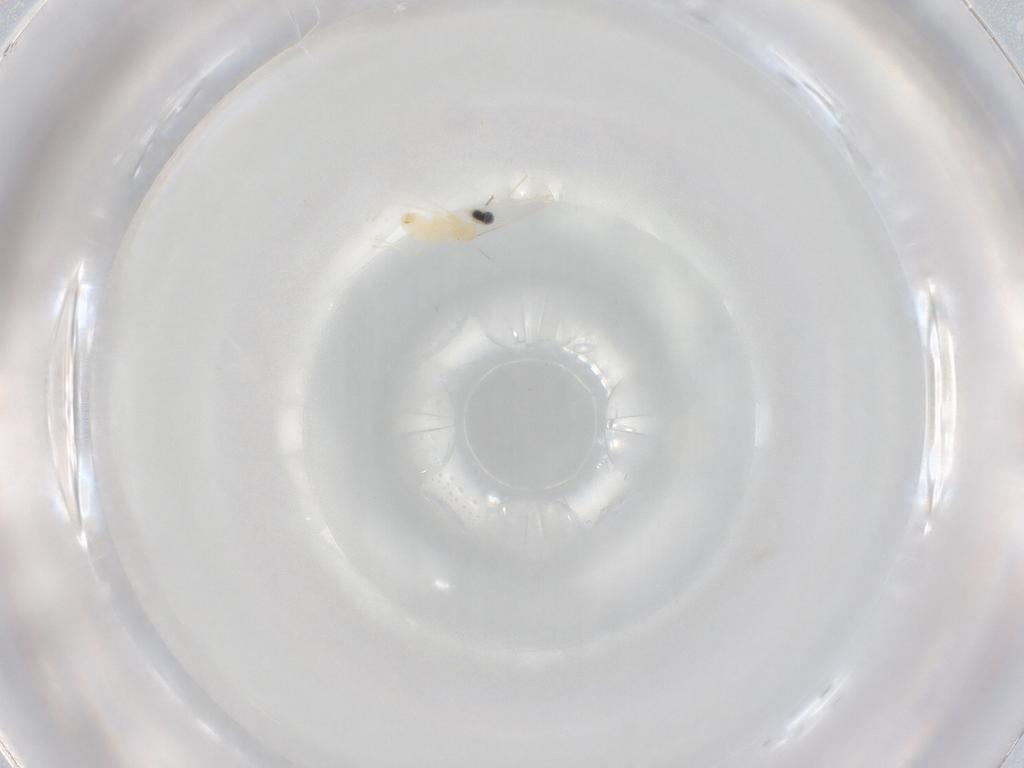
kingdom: Animalia
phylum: Arthropoda
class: Insecta
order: Diptera
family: Cecidomyiidae
